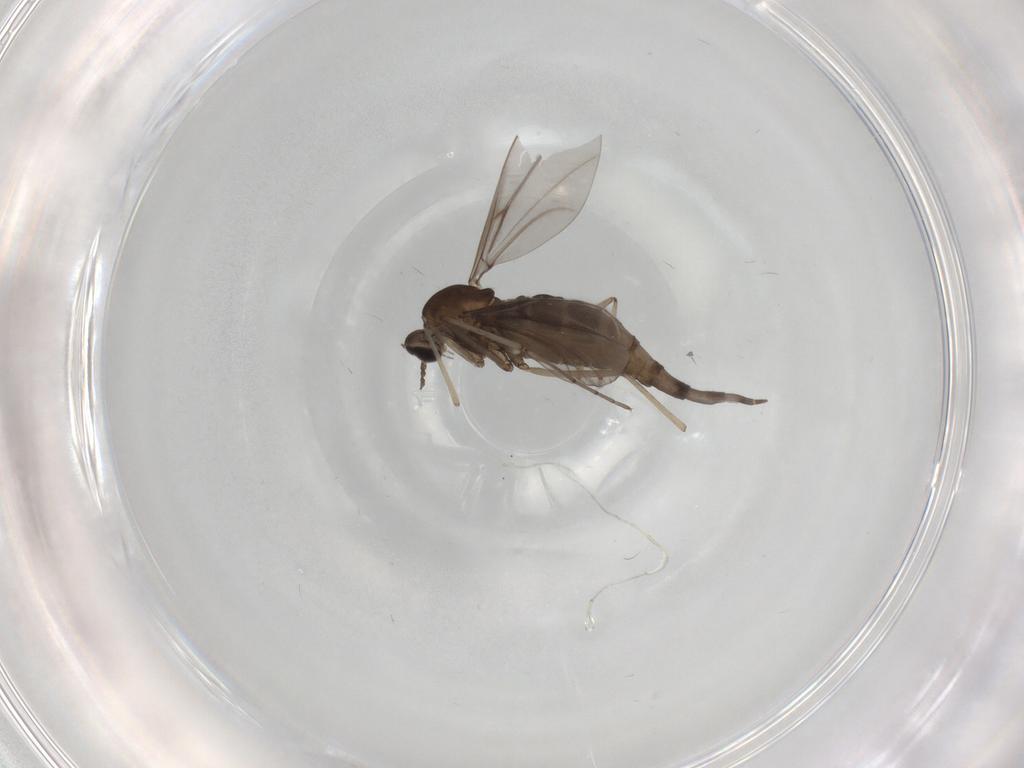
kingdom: Animalia
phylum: Arthropoda
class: Insecta
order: Diptera
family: Cecidomyiidae
